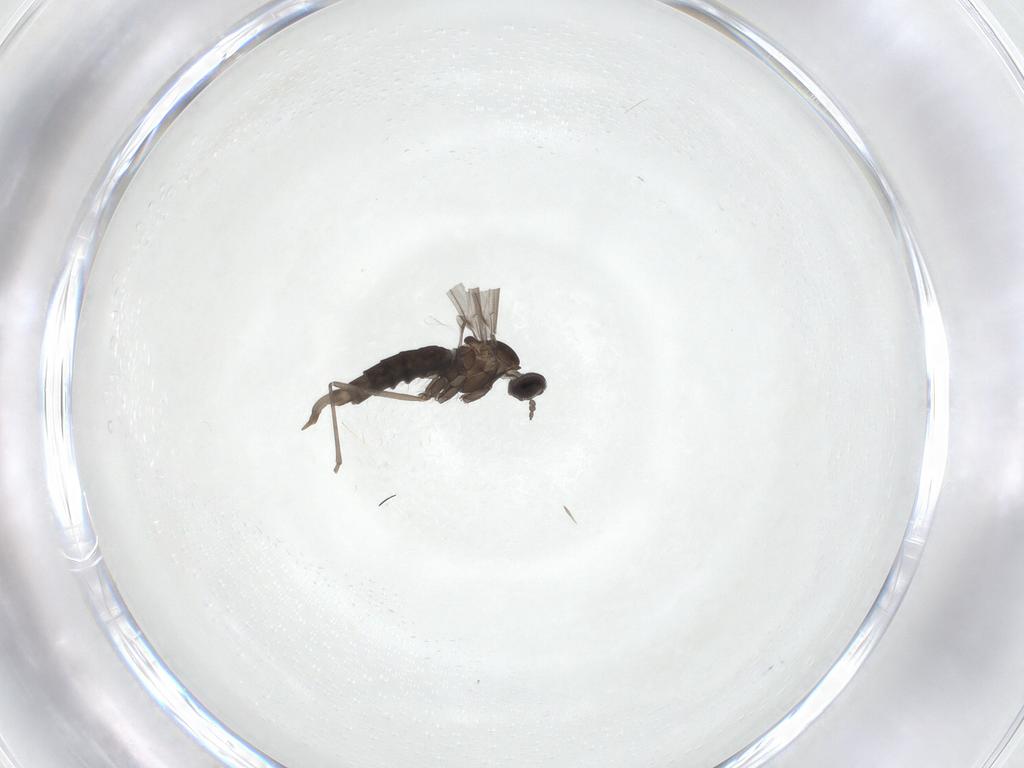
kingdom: Animalia
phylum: Arthropoda
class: Insecta
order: Diptera
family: Cecidomyiidae
